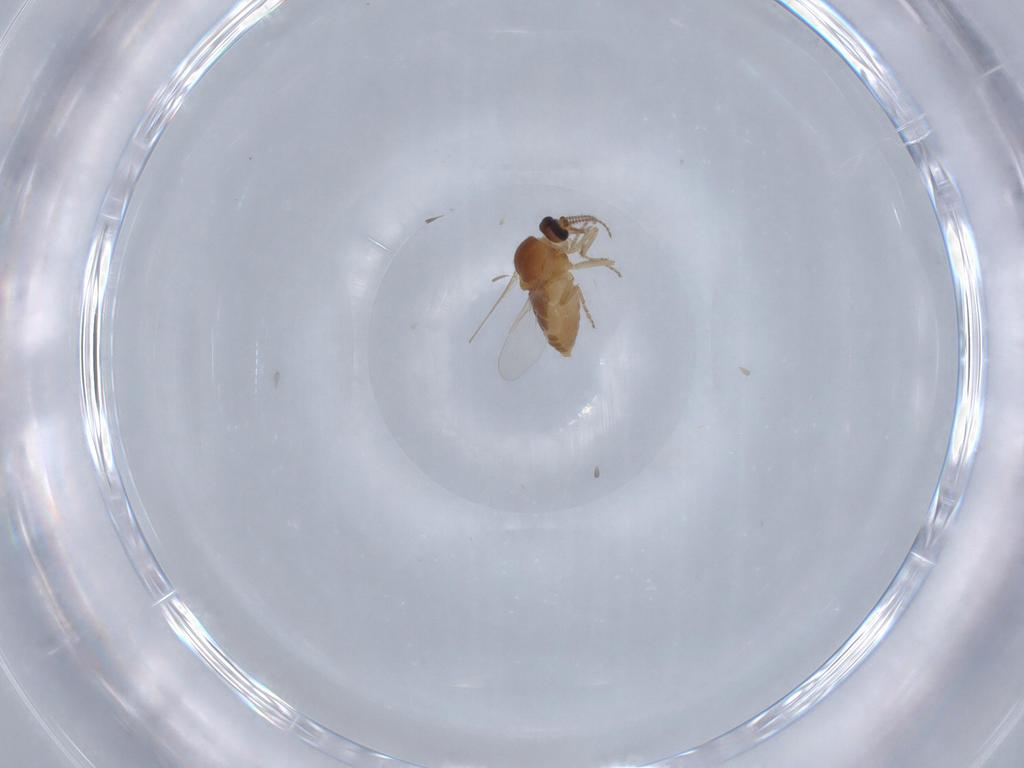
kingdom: Animalia
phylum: Arthropoda
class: Insecta
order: Diptera
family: Ceratopogonidae
